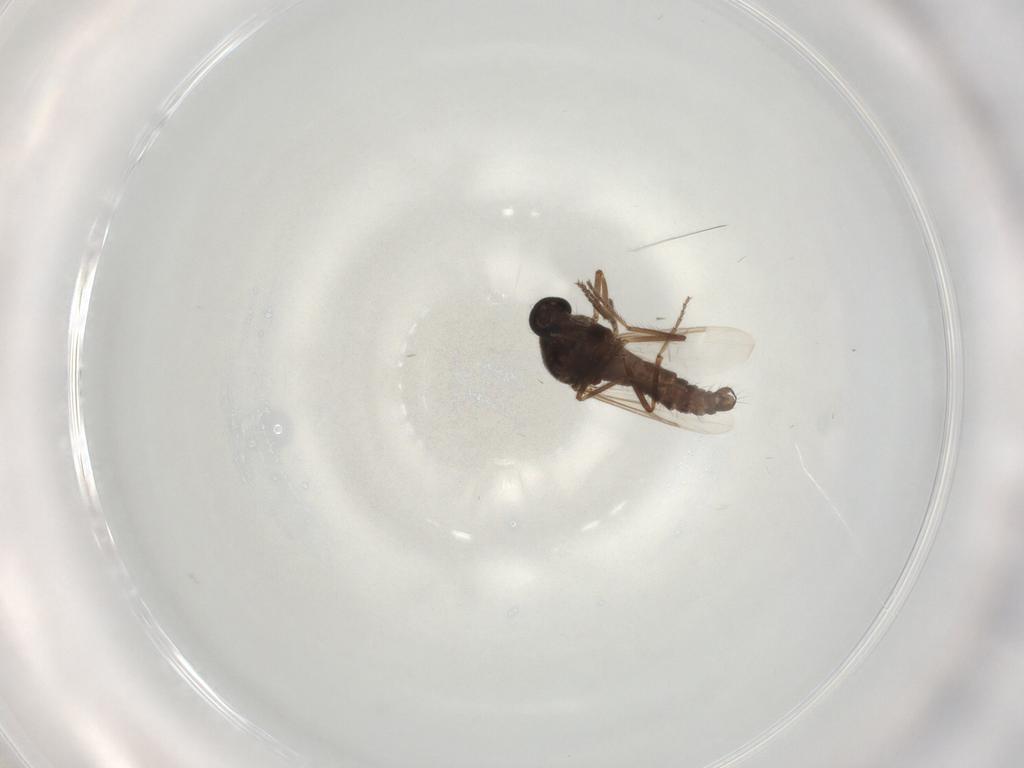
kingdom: Animalia
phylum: Arthropoda
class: Insecta
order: Diptera
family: Ceratopogonidae
